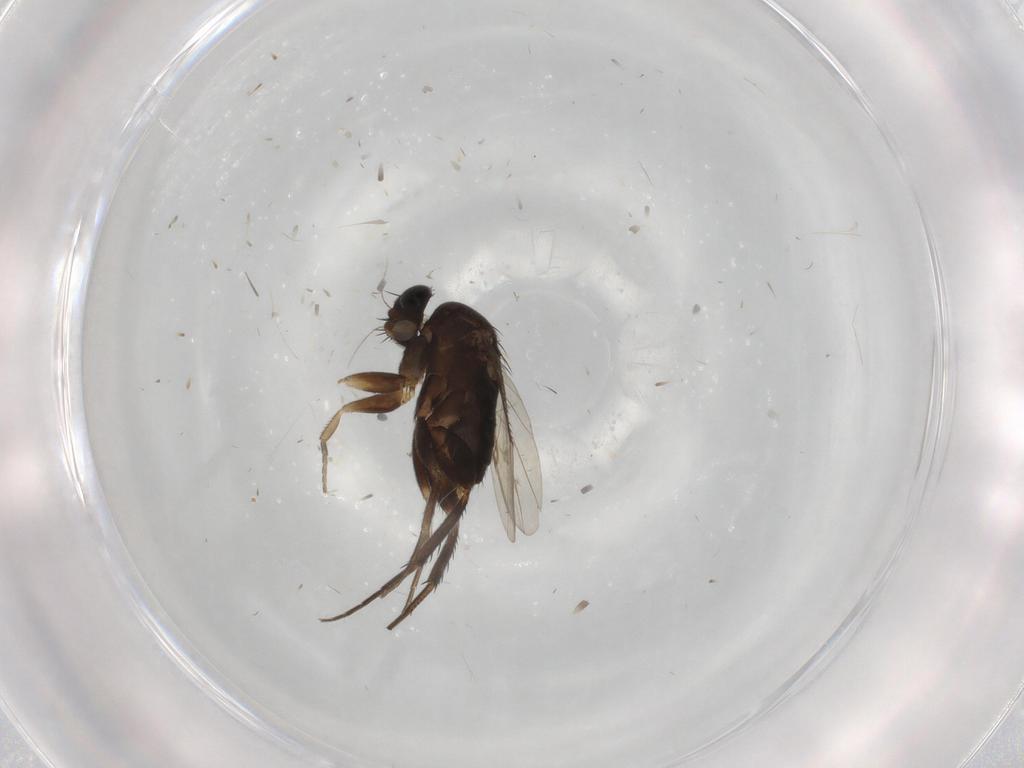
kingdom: Animalia
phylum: Arthropoda
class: Insecta
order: Diptera
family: Phoridae
